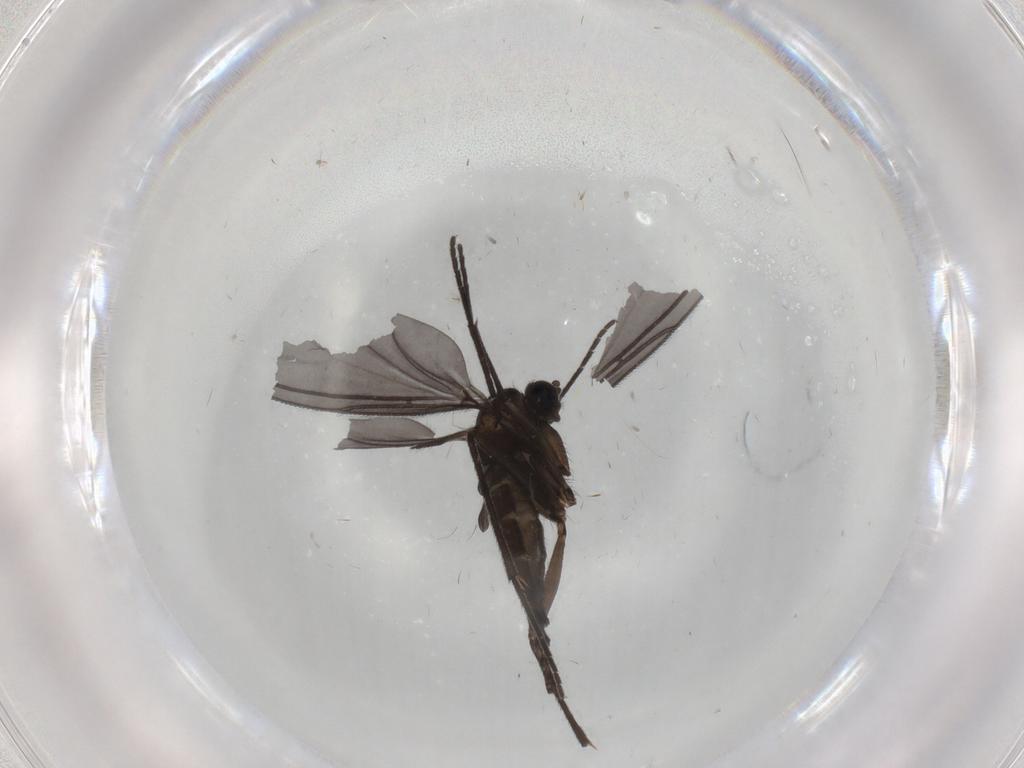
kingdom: Animalia
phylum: Arthropoda
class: Insecta
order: Diptera
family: Sciaridae
